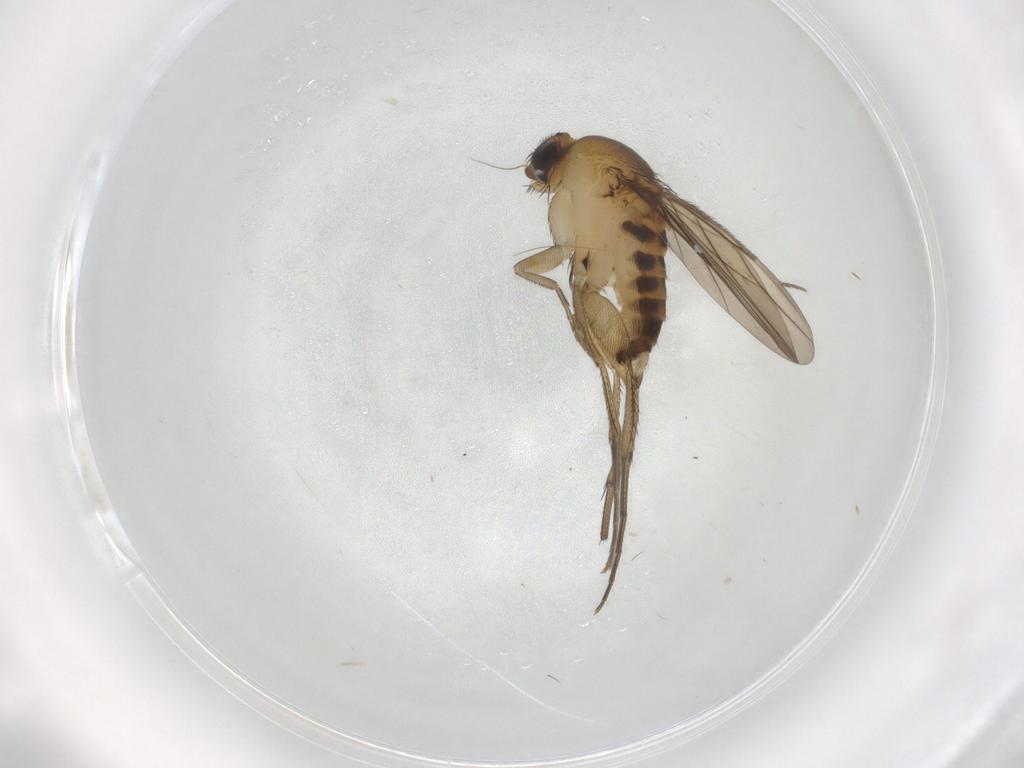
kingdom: Animalia
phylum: Arthropoda
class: Insecta
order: Diptera
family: Phoridae
